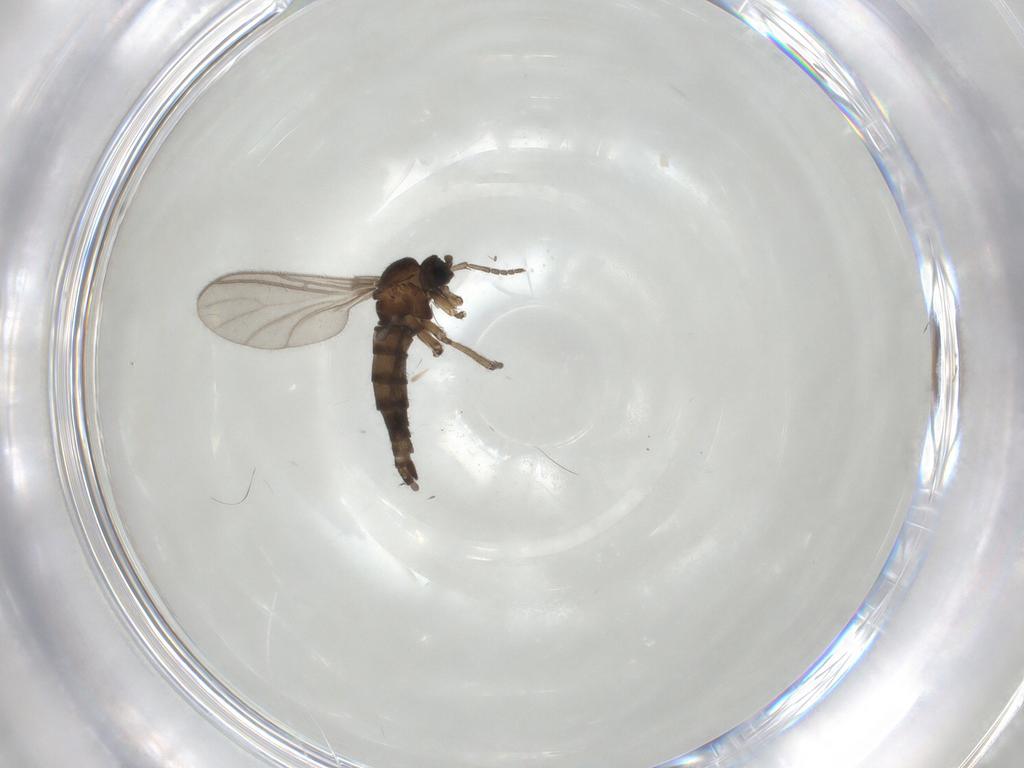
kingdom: Animalia
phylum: Arthropoda
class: Insecta
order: Diptera
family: Sciaridae
